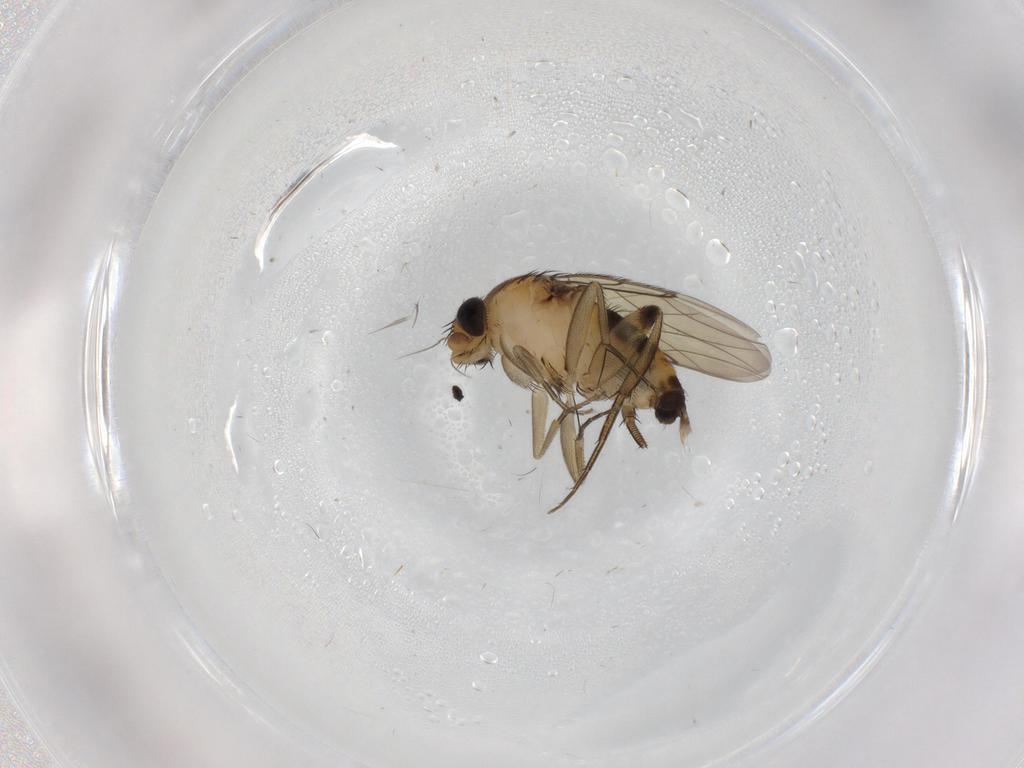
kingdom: Animalia
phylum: Arthropoda
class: Insecta
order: Diptera
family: Phoridae
